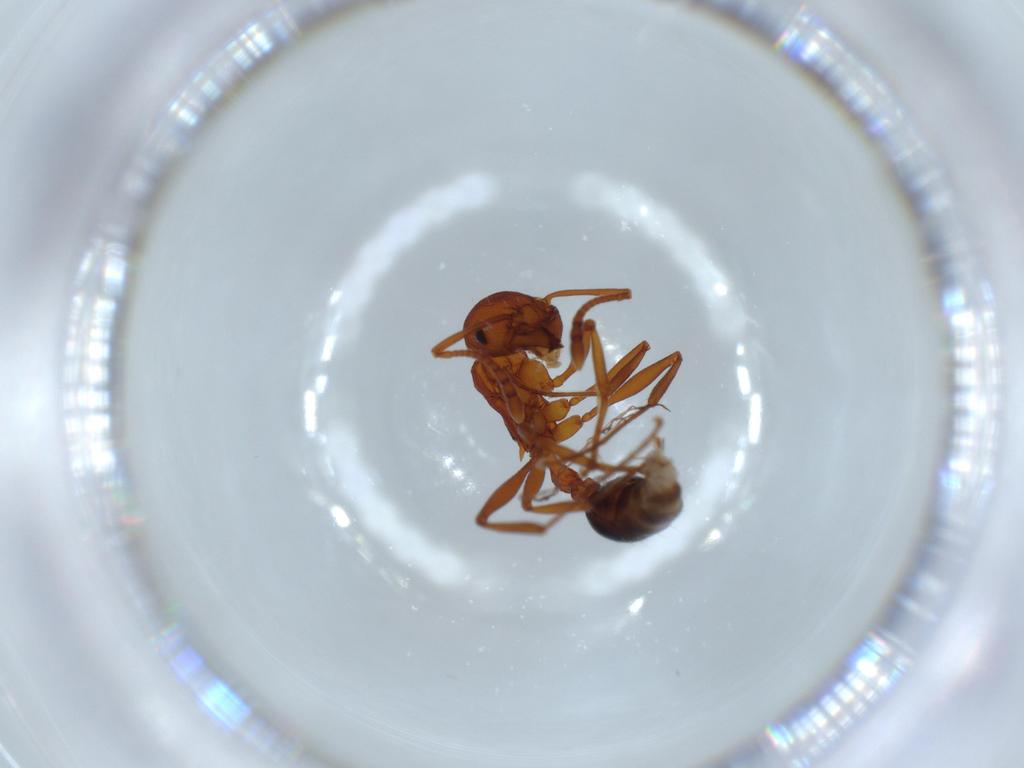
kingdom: Animalia
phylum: Arthropoda
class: Insecta
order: Hymenoptera
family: Formicidae
